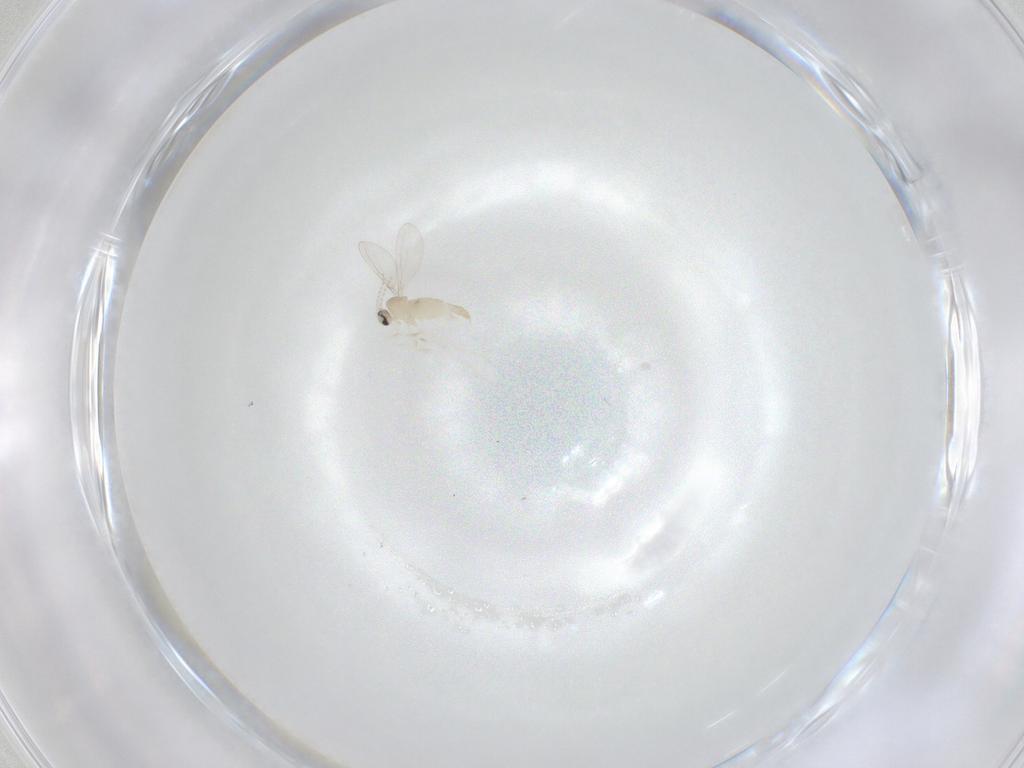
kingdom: Animalia
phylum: Arthropoda
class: Insecta
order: Diptera
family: Cecidomyiidae
